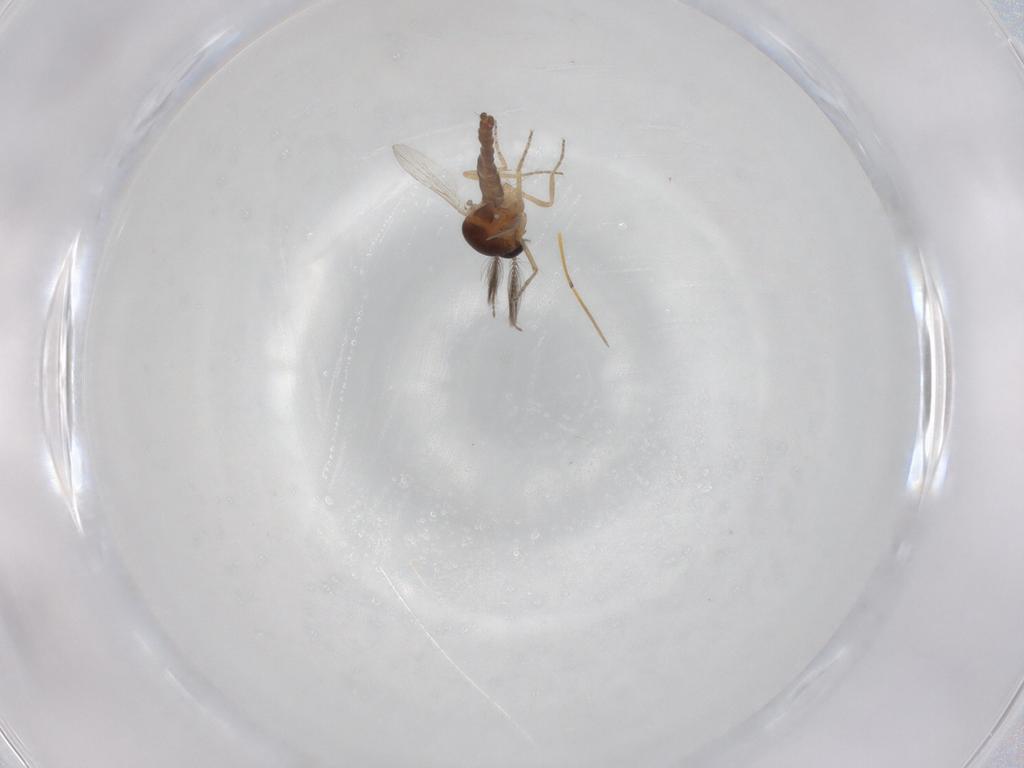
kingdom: Animalia
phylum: Arthropoda
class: Insecta
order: Diptera
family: Ceratopogonidae
